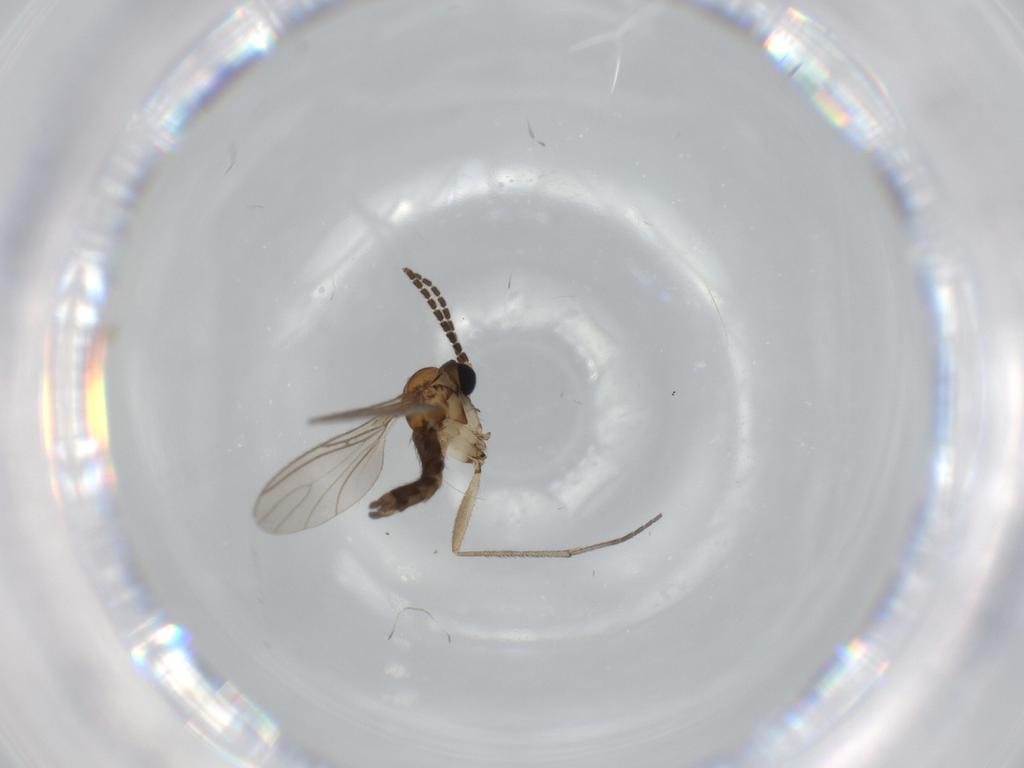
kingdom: Animalia
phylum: Arthropoda
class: Insecta
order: Diptera
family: Sciaridae
